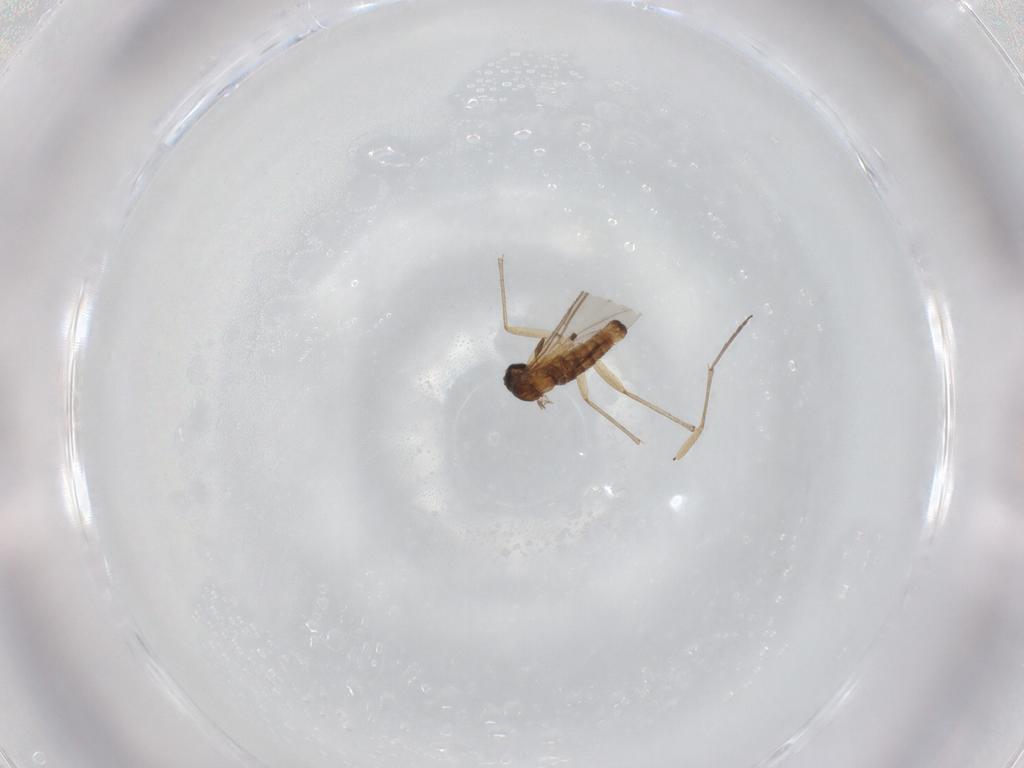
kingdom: Animalia
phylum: Arthropoda
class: Insecta
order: Diptera
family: Sciaridae
